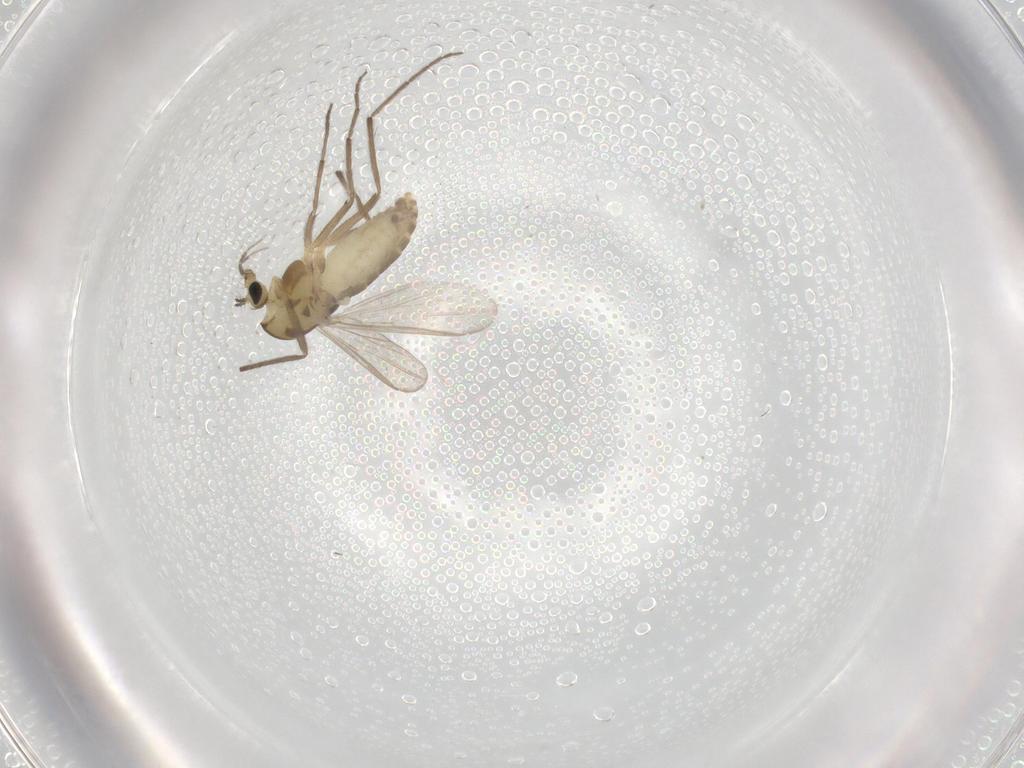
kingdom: Animalia
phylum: Arthropoda
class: Insecta
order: Diptera
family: Chironomidae
